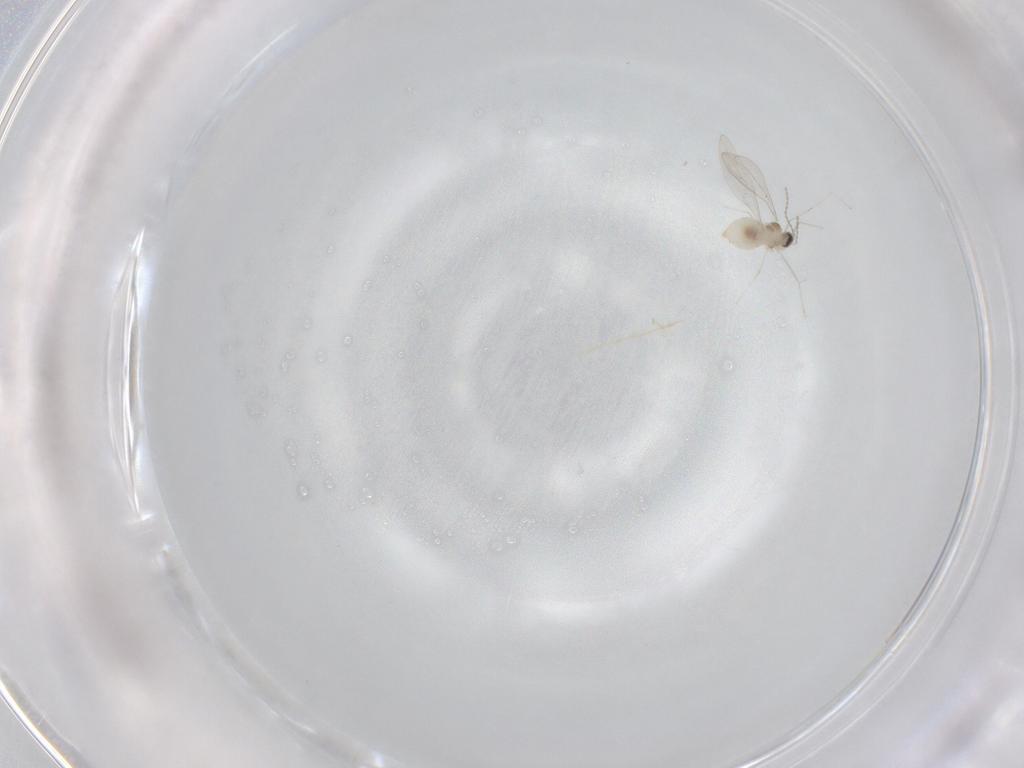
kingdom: Animalia
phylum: Arthropoda
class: Insecta
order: Diptera
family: Cecidomyiidae
